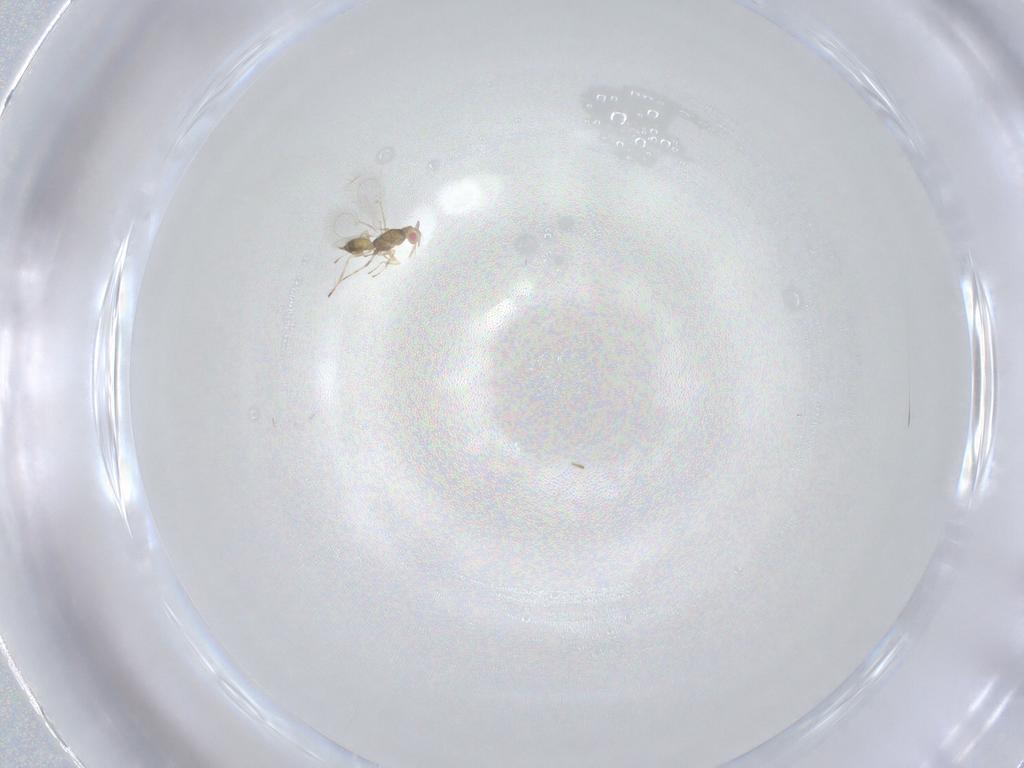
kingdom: Animalia
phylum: Arthropoda
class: Insecta
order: Hymenoptera
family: Eulophidae
